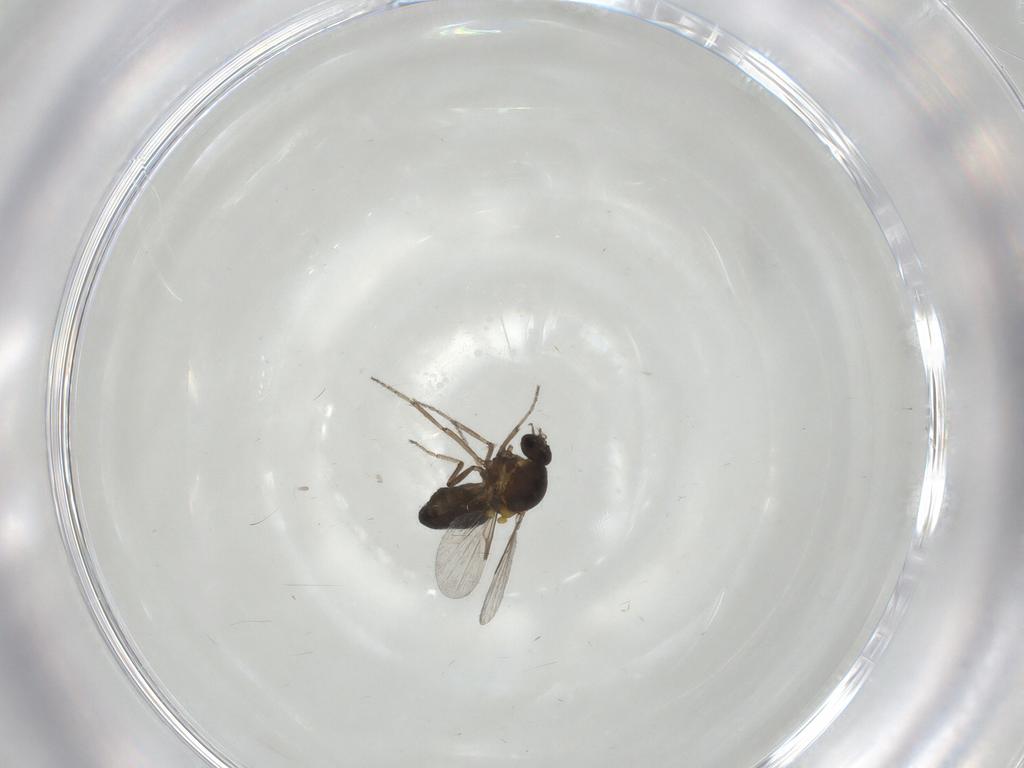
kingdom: Animalia
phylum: Arthropoda
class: Insecta
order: Diptera
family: Ceratopogonidae
